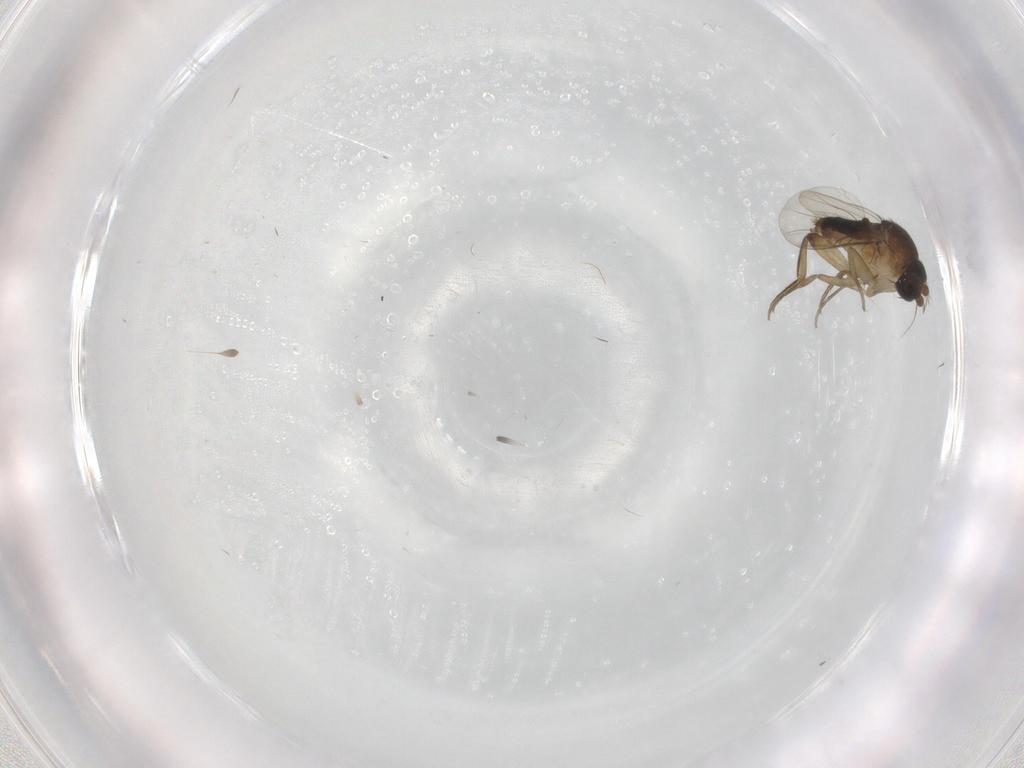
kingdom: Animalia
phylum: Arthropoda
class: Insecta
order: Diptera
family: Phoridae
